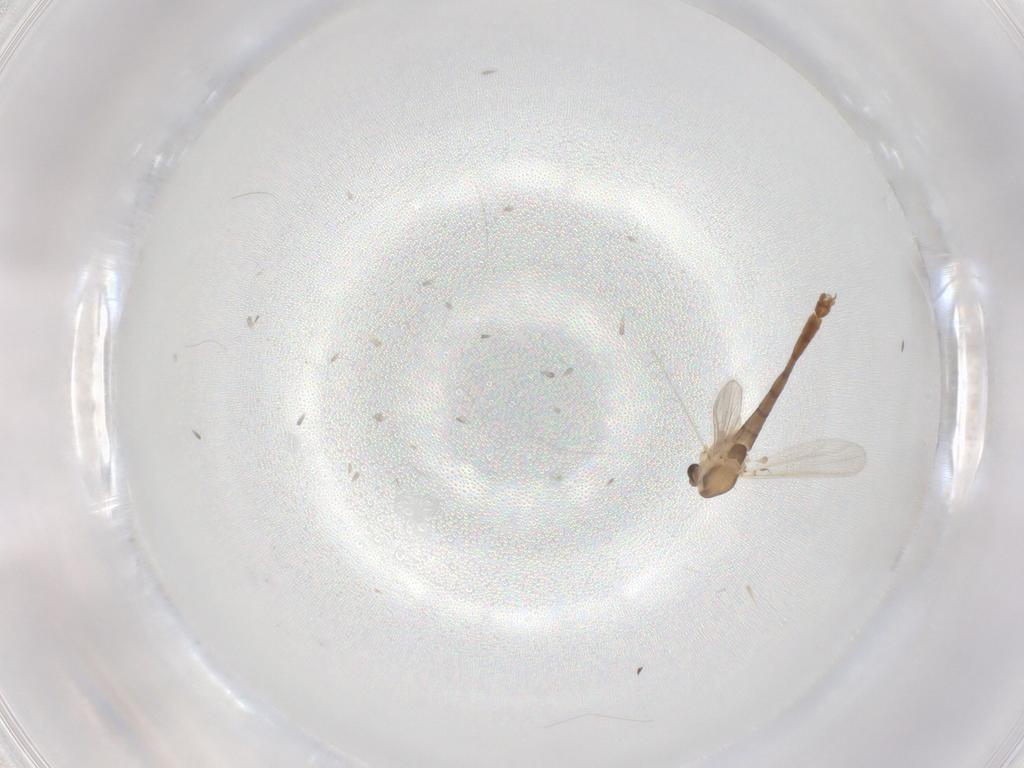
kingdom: Animalia
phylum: Arthropoda
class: Insecta
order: Diptera
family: Chironomidae
